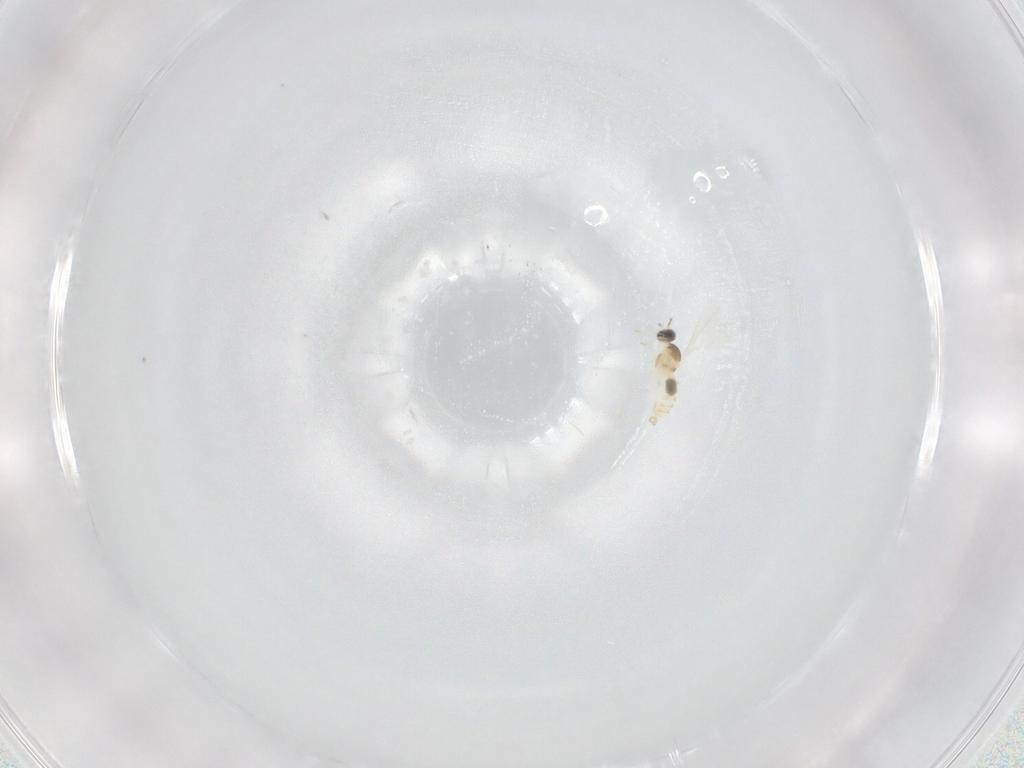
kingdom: Animalia
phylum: Arthropoda
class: Insecta
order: Diptera
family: Cecidomyiidae
